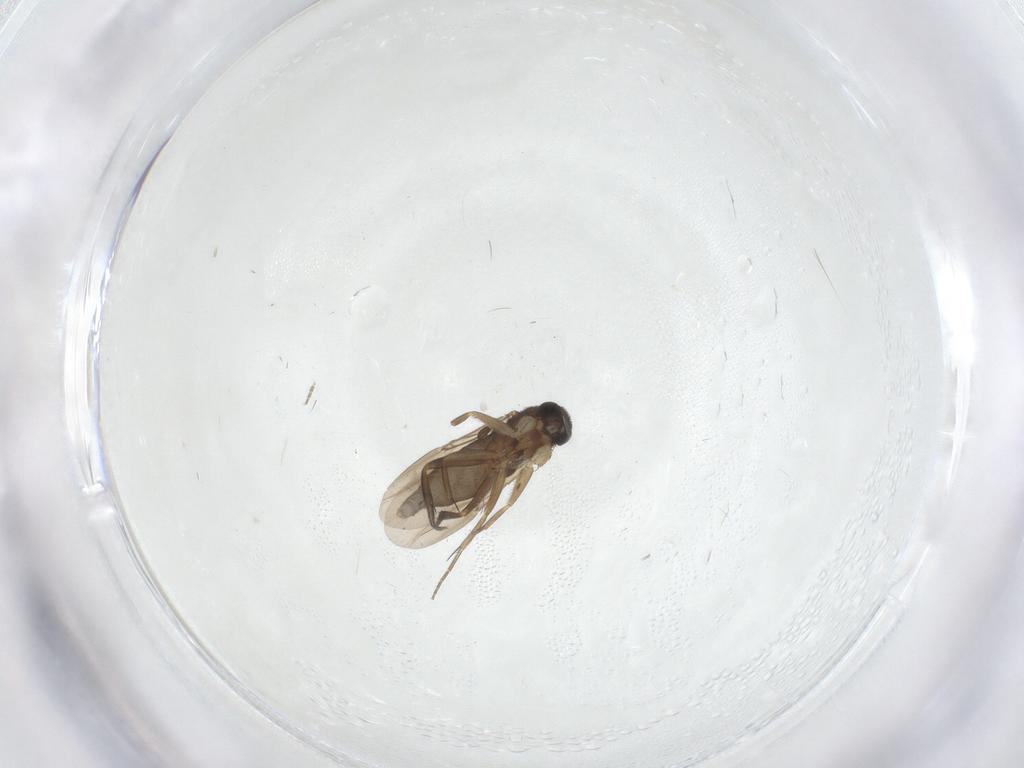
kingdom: Animalia
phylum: Arthropoda
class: Insecta
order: Diptera
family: Phoridae
